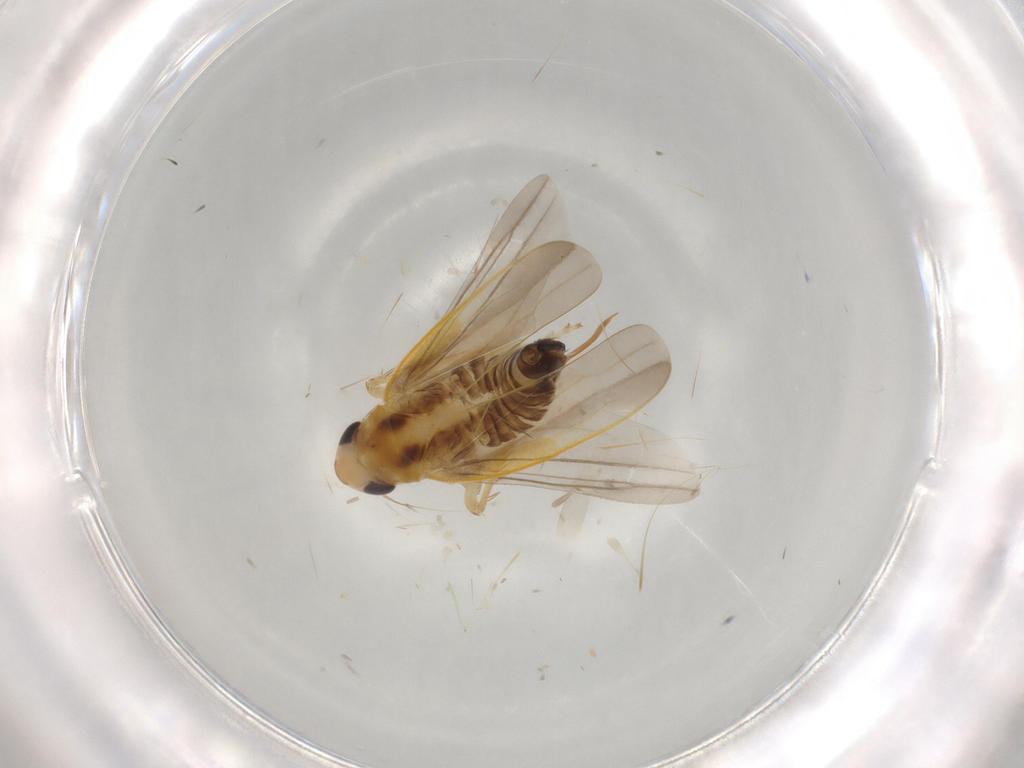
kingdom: Animalia
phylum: Arthropoda
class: Insecta
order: Hemiptera
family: Cicadellidae
